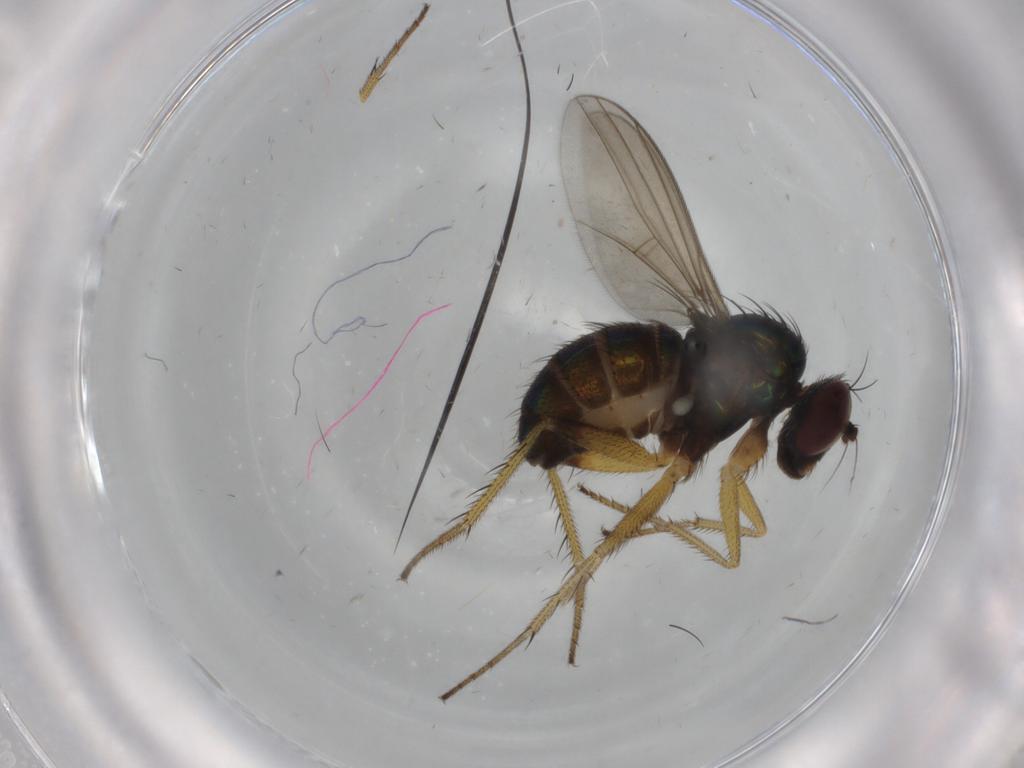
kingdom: Animalia
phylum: Arthropoda
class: Insecta
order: Diptera
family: Dolichopodidae
